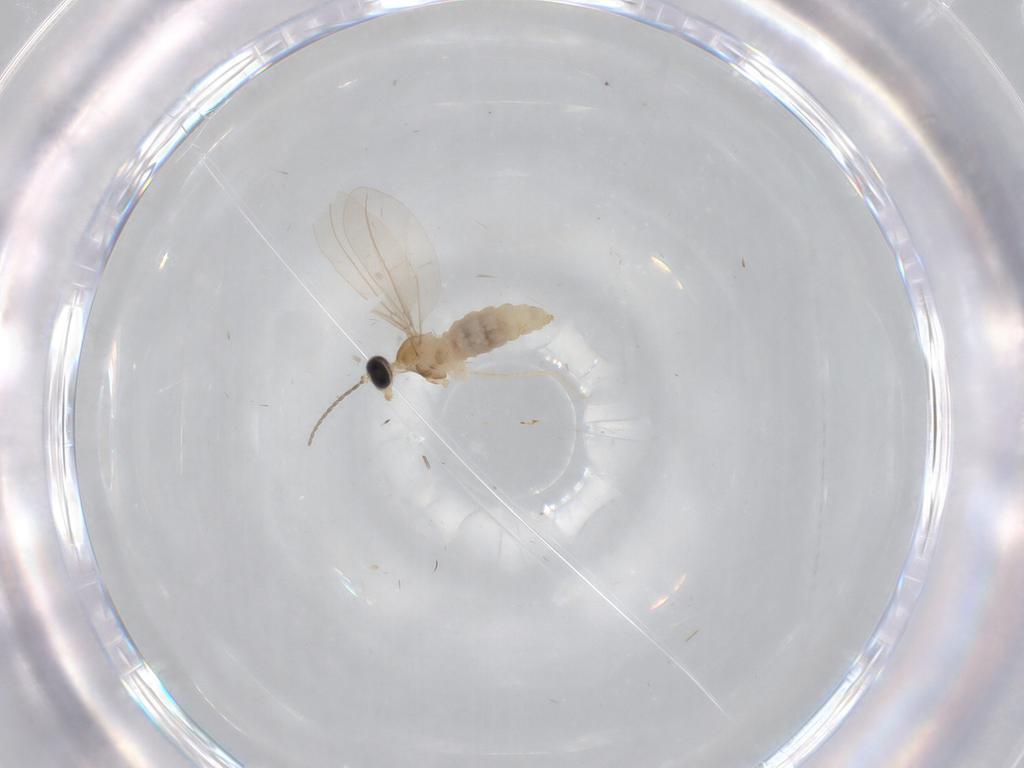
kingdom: Animalia
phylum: Arthropoda
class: Insecta
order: Diptera
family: Cecidomyiidae
